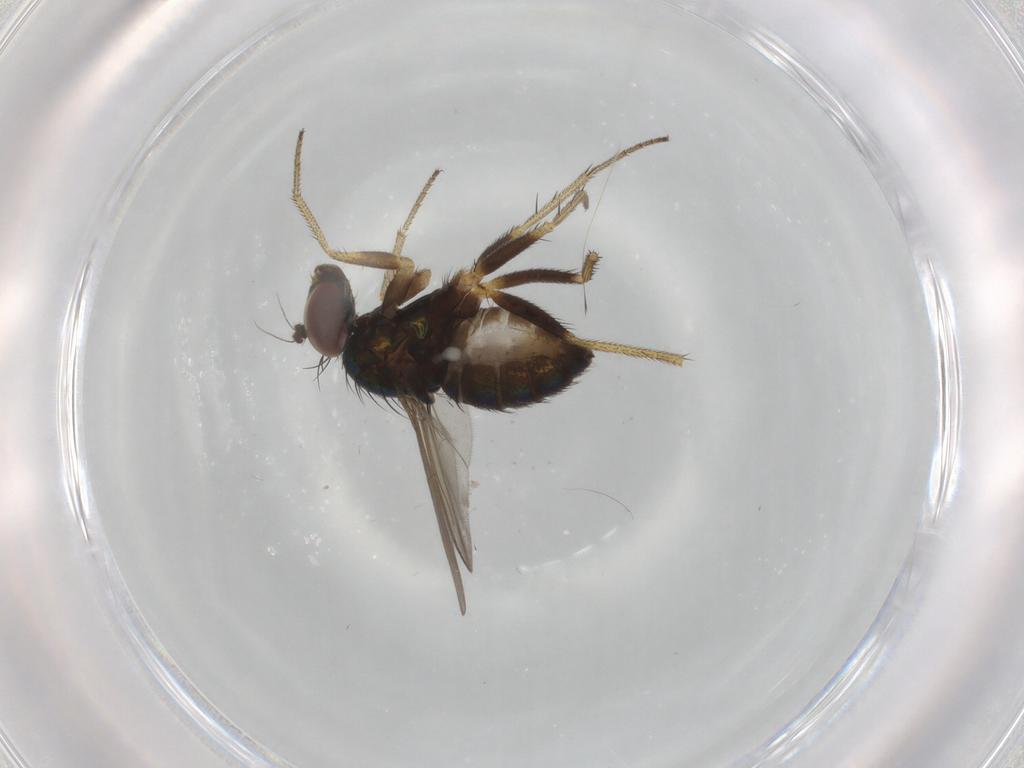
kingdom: Animalia
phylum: Arthropoda
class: Insecta
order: Diptera
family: Dolichopodidae
